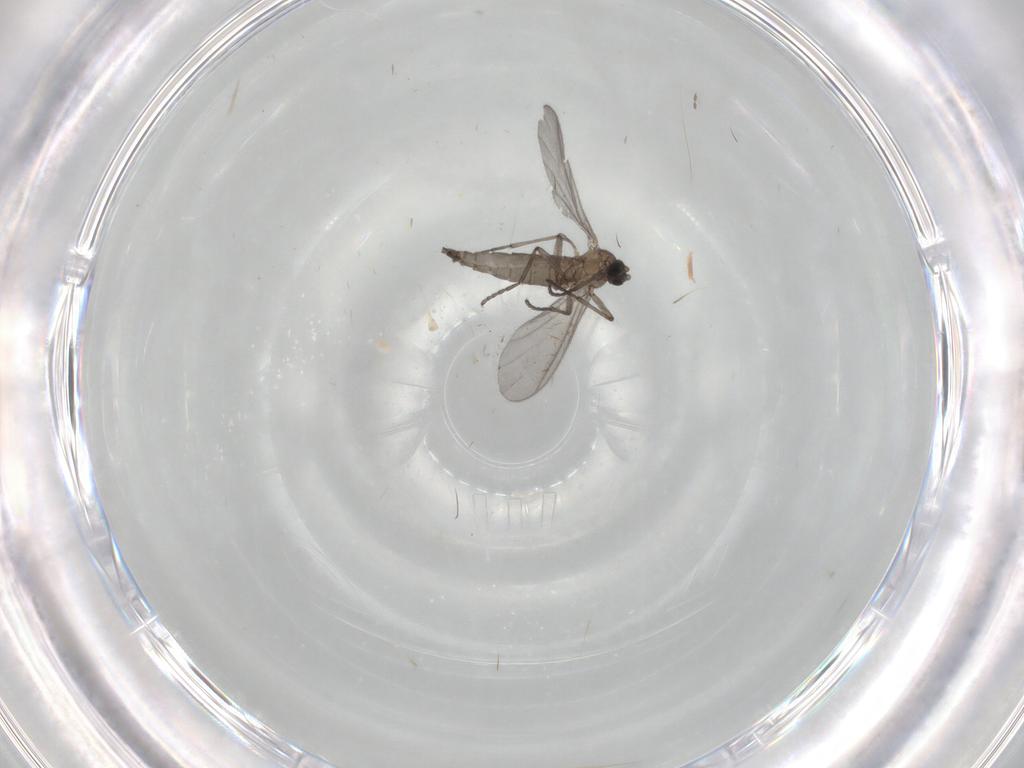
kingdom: Animalia
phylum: Arthropoda
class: Insecta
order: Diptera
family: Sciaridae
